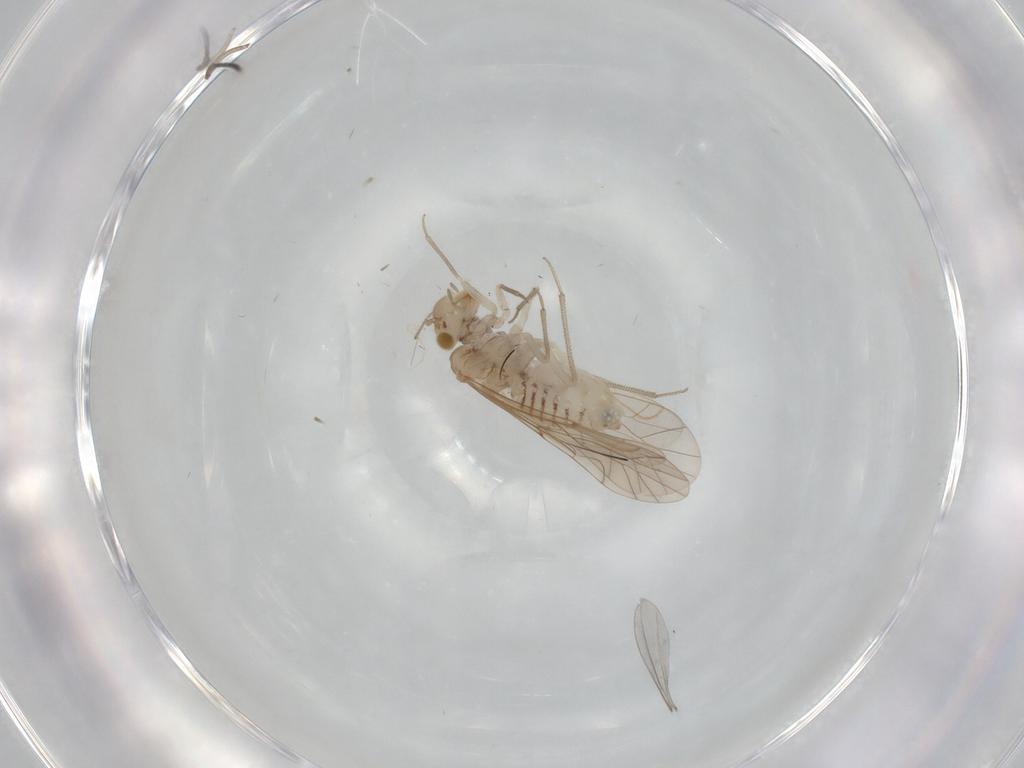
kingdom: Animalia
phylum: Arthropoda
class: Insecta
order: Psocodea
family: Lachesillidae
